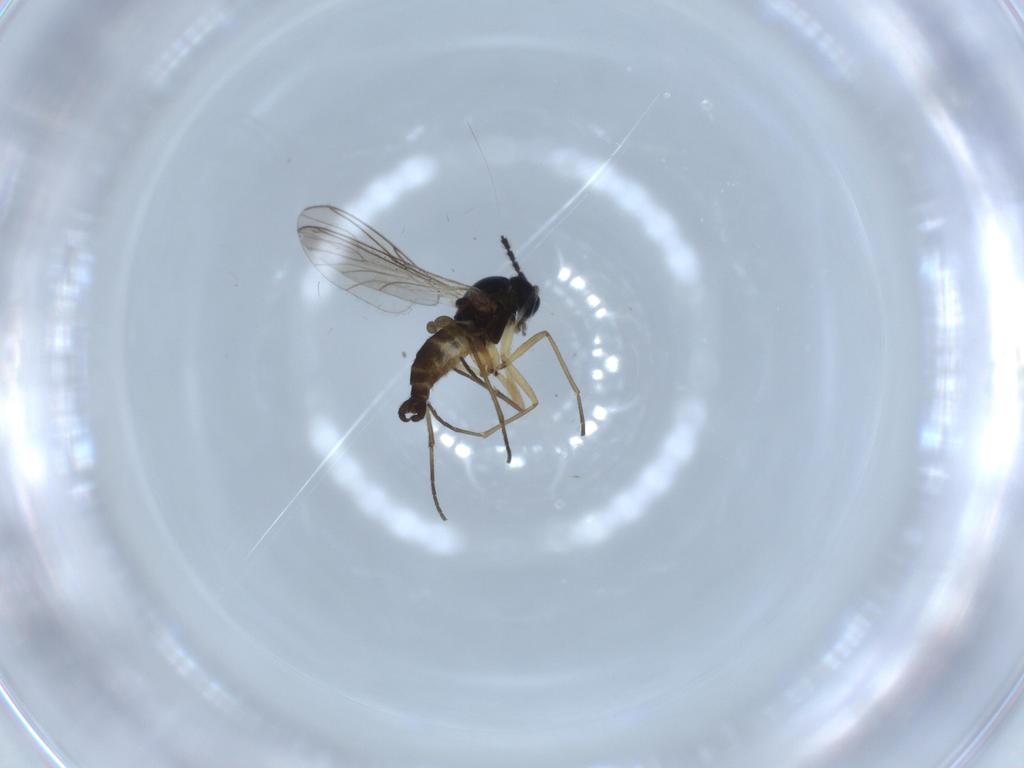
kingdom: Animalia
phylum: Arthropoda
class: Insecta
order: Diptera
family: Sciaridae
